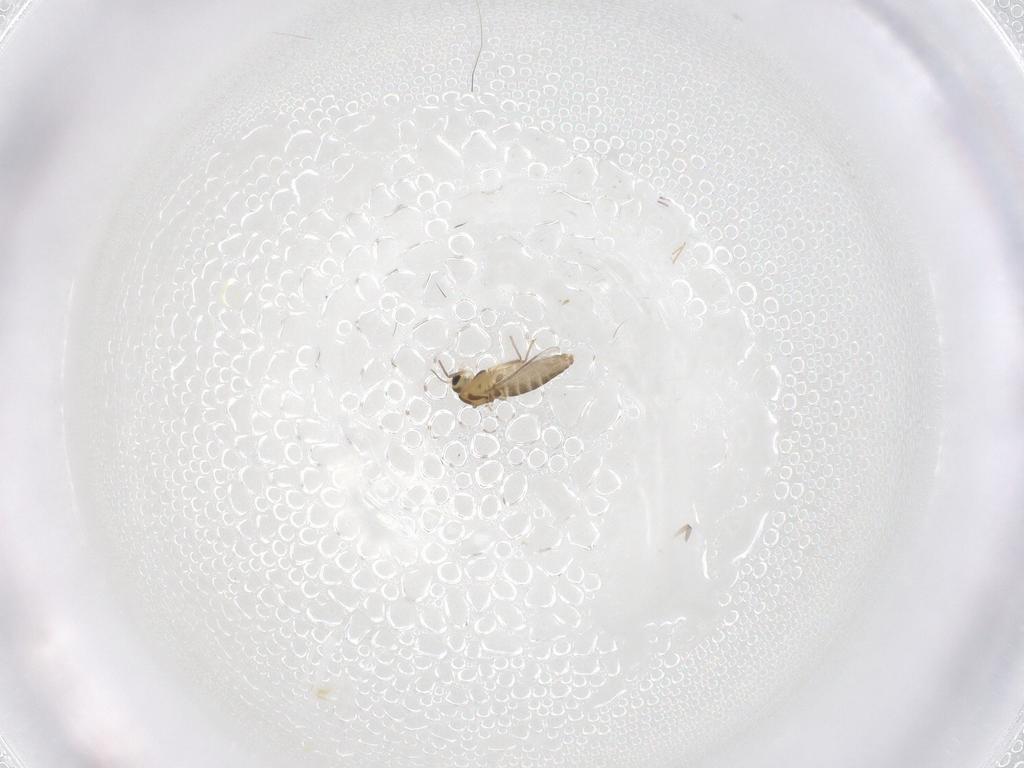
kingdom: Animalia
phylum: Arthropoda
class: Insecta
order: Diptera
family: Chironomidae
